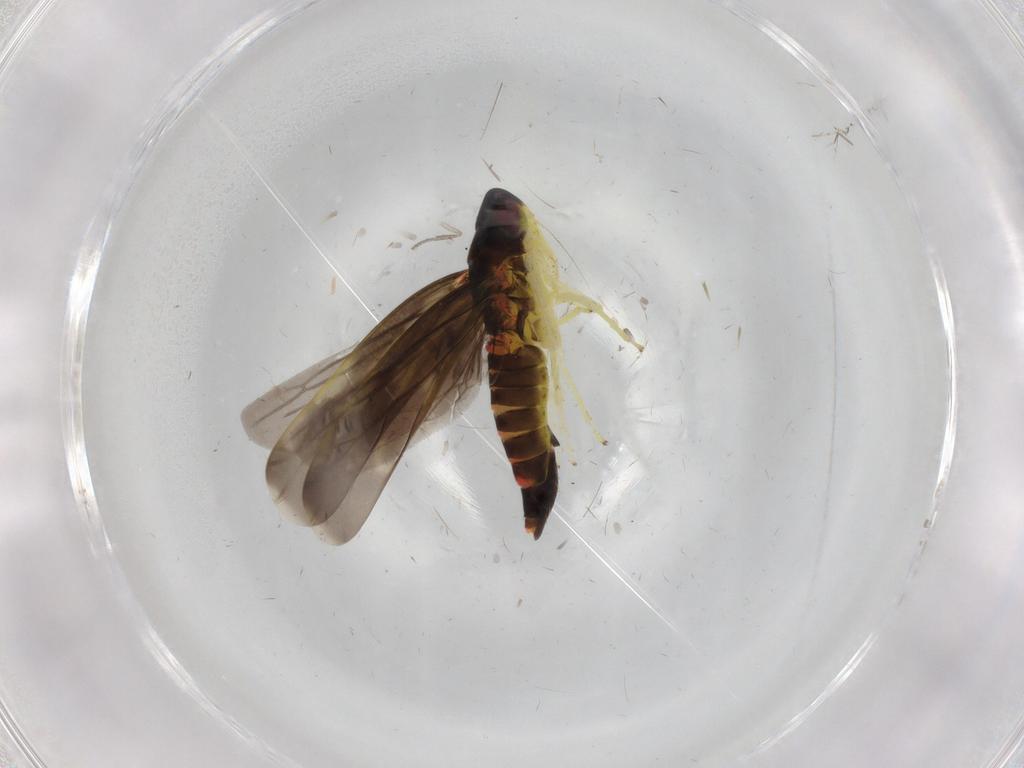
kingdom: Animalia
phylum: Arthropoda
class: Insecta
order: Hemiptera
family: Cicadellidae
